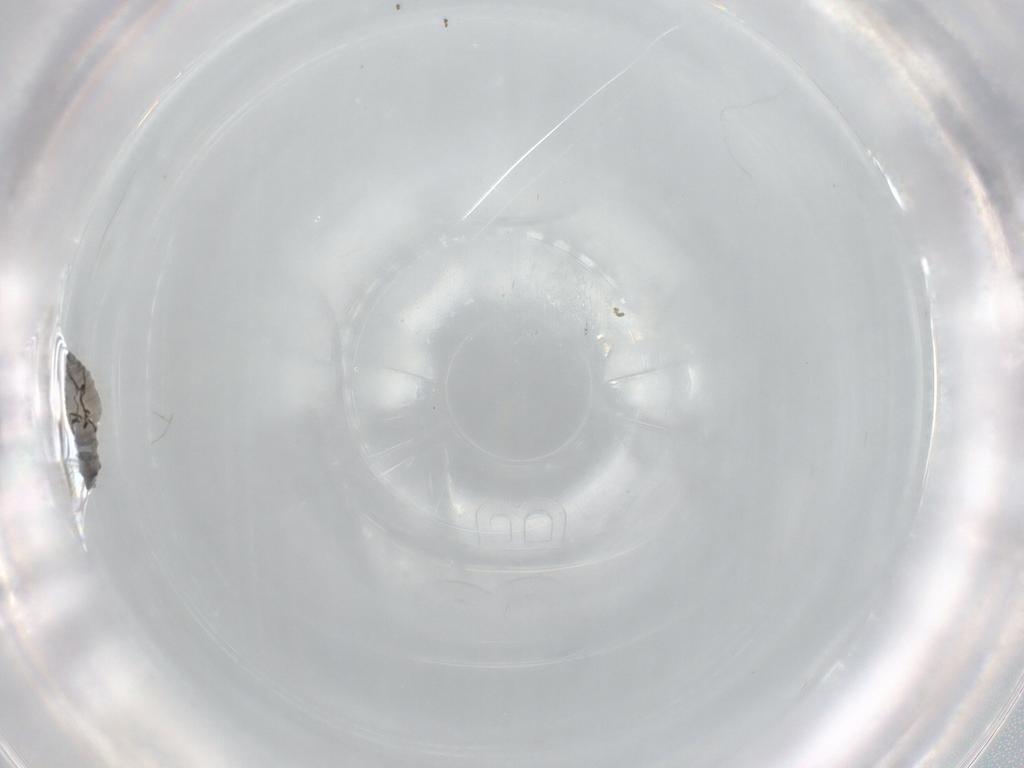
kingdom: Animalia
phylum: Arthropoda
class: Insecta
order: Diptera
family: Psychodidae
